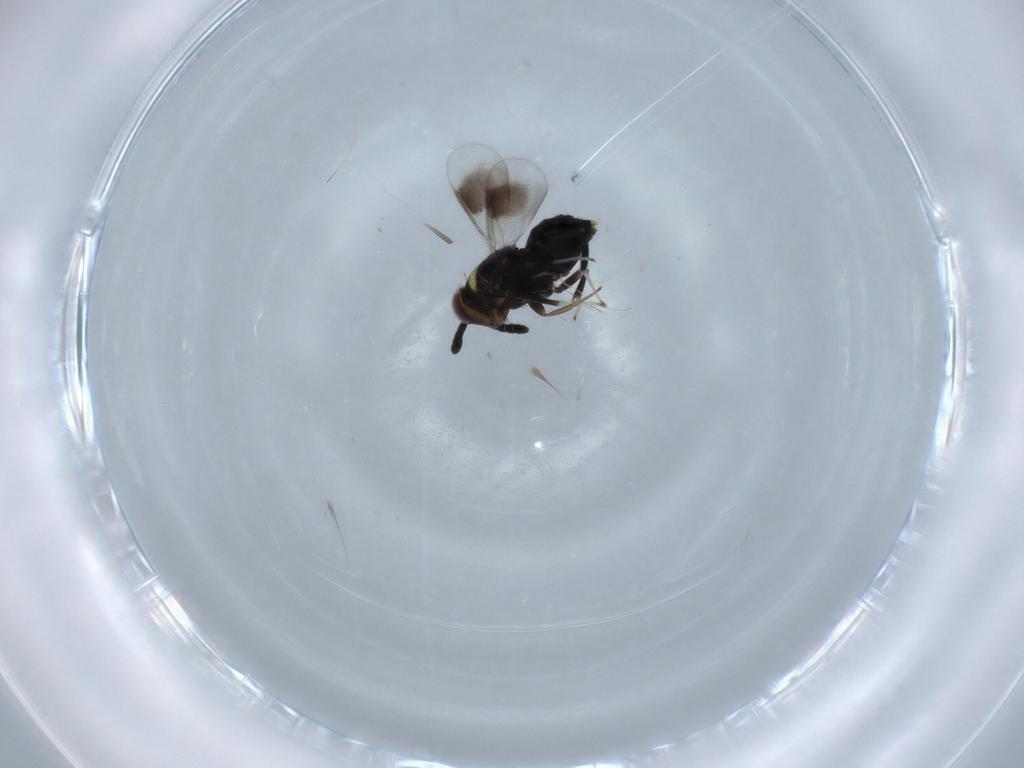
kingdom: Animalia
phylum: Arthropoda
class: Insecta
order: Hymenoptera
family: Aphelinidae
